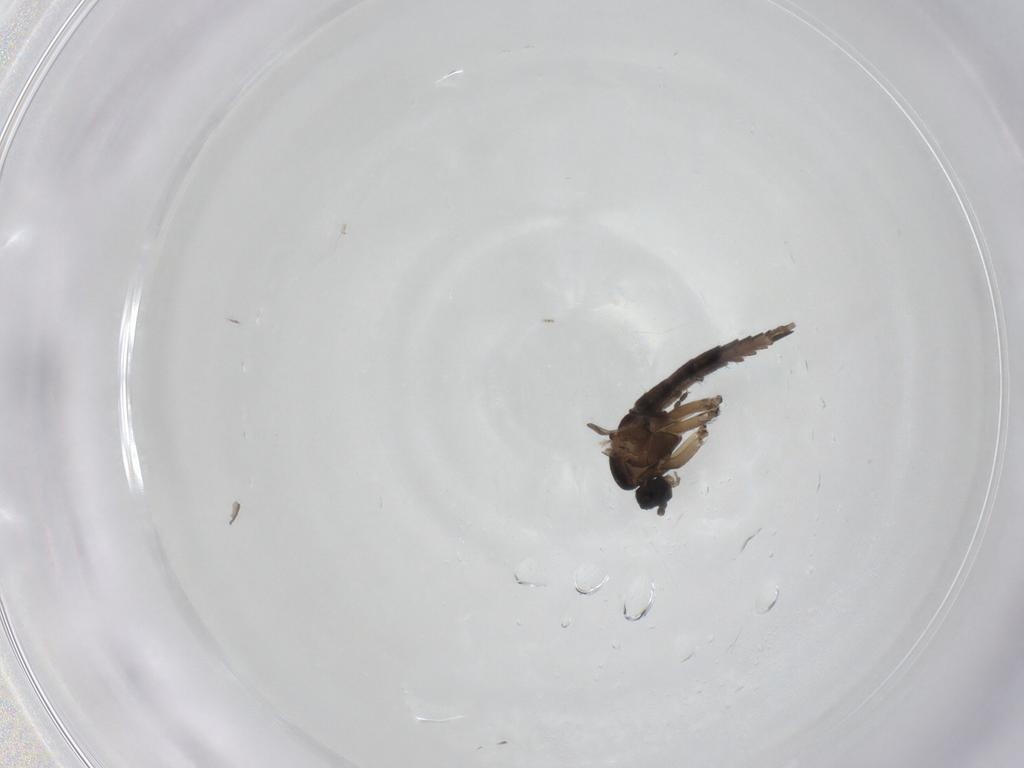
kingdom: Animalia
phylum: Arthropoda
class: Insecta
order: Diptera
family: Sciaridae
